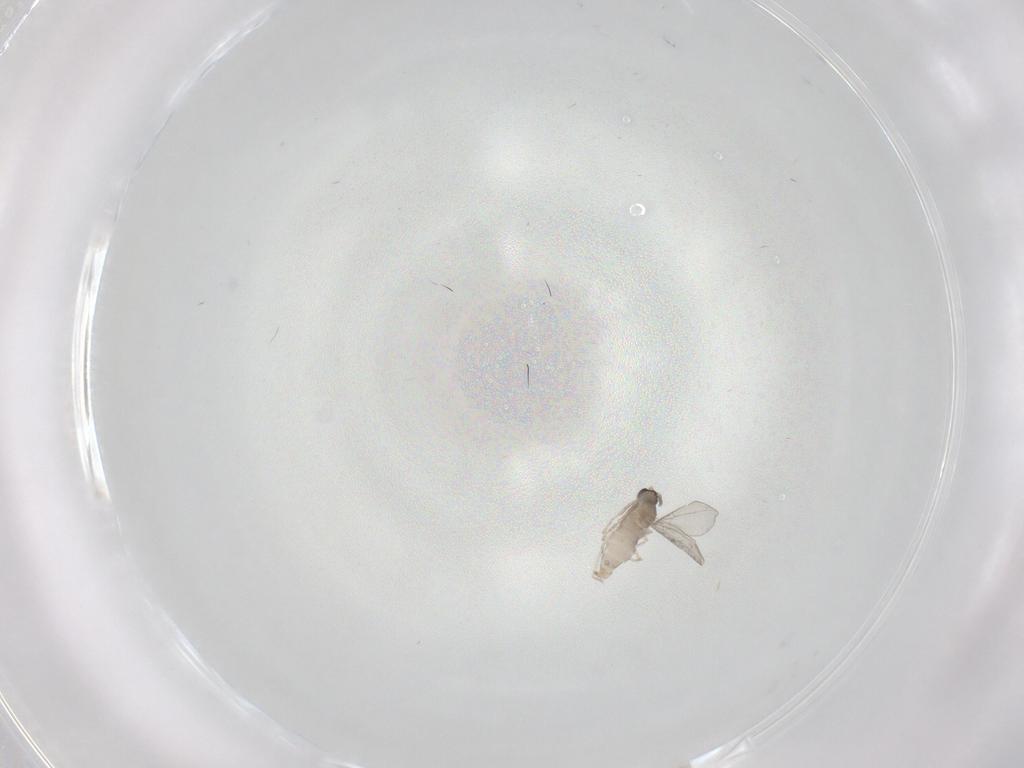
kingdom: Animalia
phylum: Arthropoda
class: Insecta
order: Diptera
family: Cecidomyiidae
